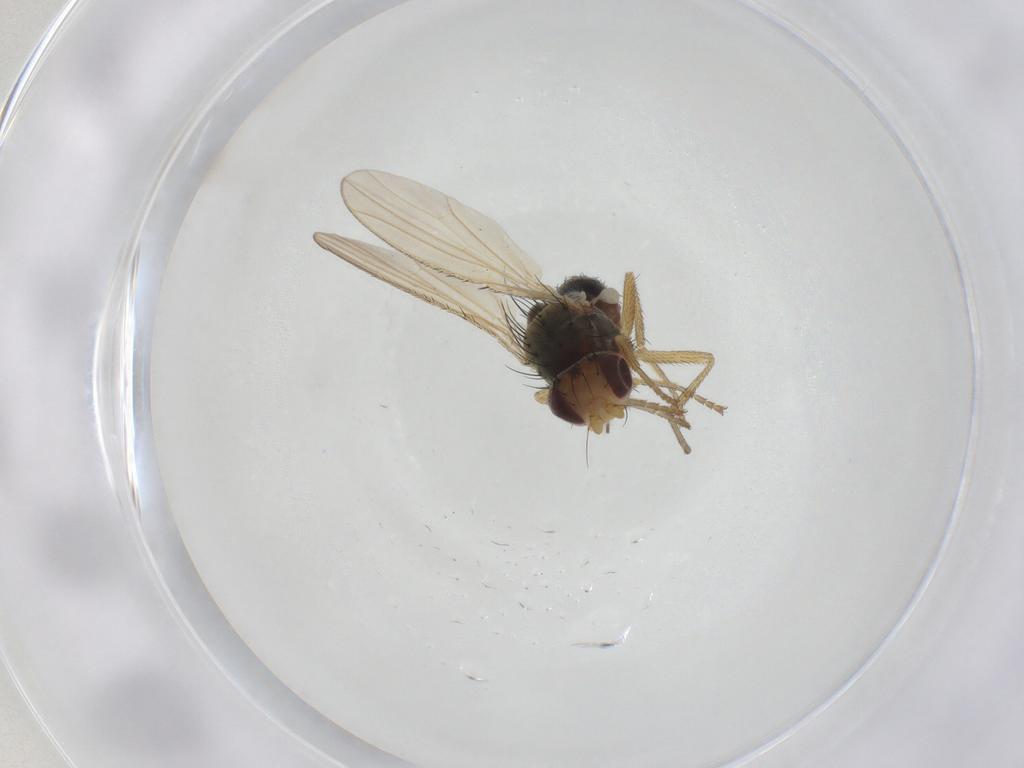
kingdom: Animalia
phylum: Arthropoda
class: Insecta
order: Diptera
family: Heleomyzidae
